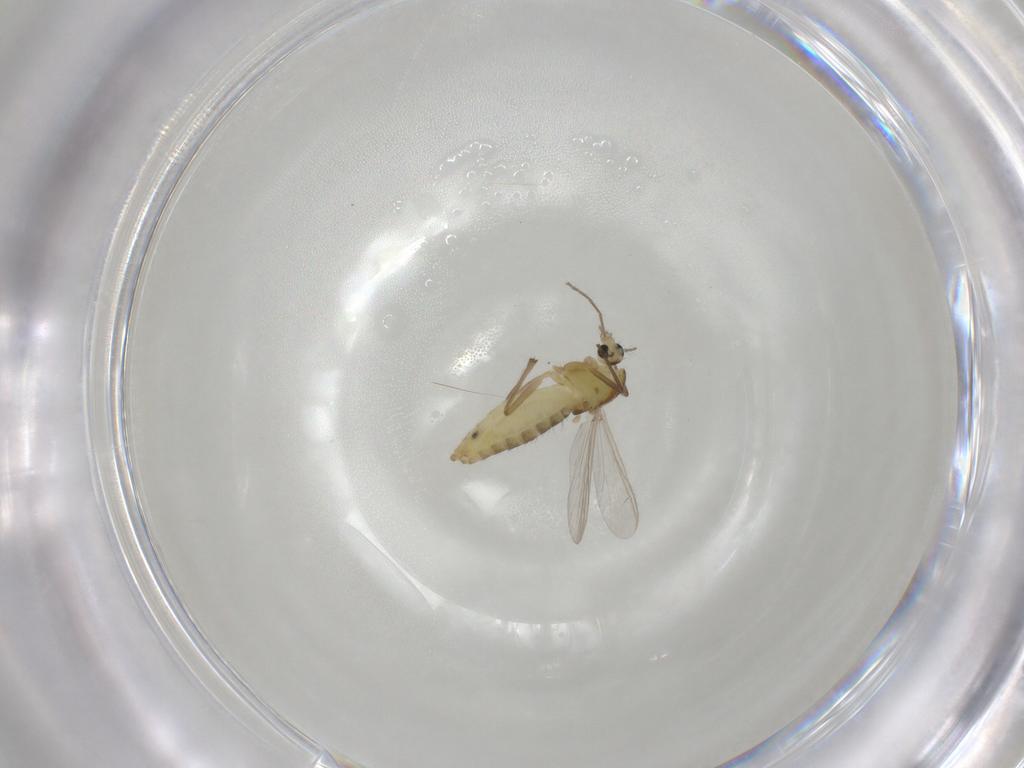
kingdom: Animalia
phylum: Arthropoda
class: Insecta
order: Diptera
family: Chironomidae
